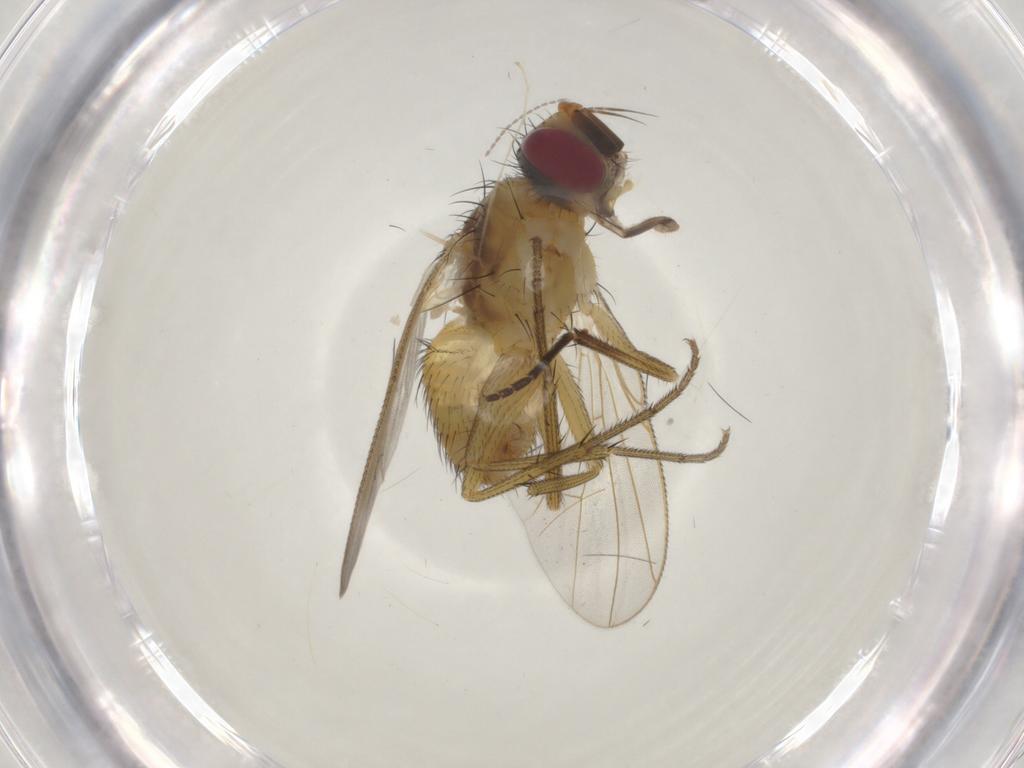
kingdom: Animalia
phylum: Arthropoda
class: Insecta
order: Diptera
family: Muscidae
